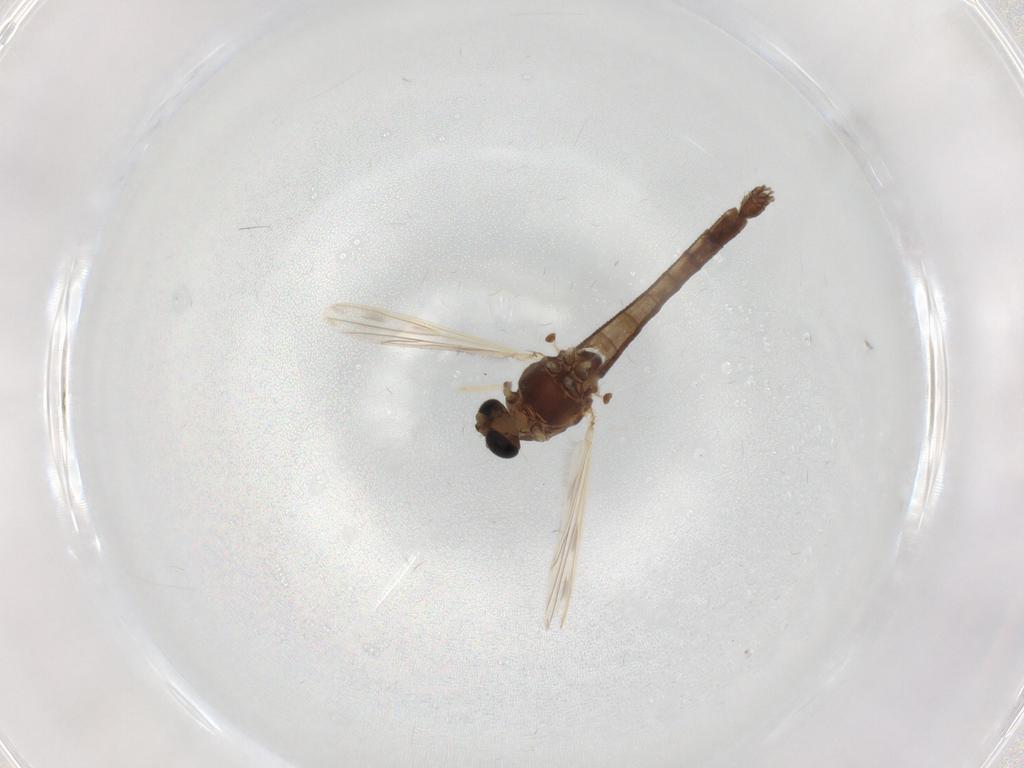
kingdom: Animalia
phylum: Arthropoda
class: Insecta
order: Diptera
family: Chironomidae
